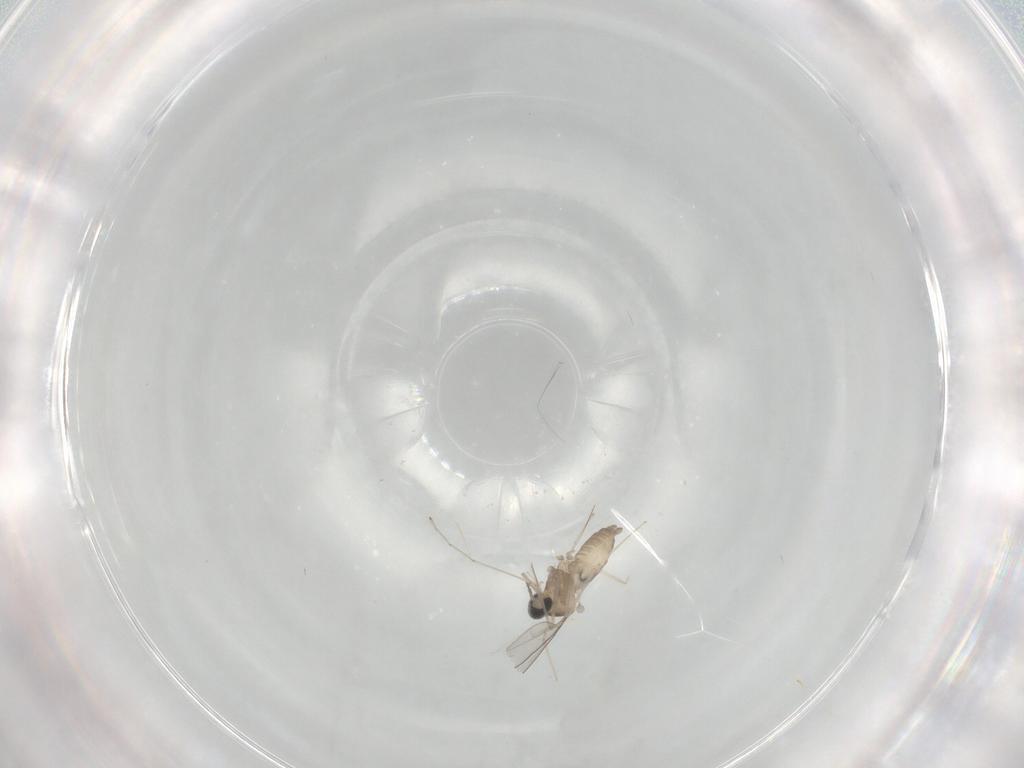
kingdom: Animalia
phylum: Arthropoda
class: Insecta
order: Diptera
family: Cecidomyiidae
